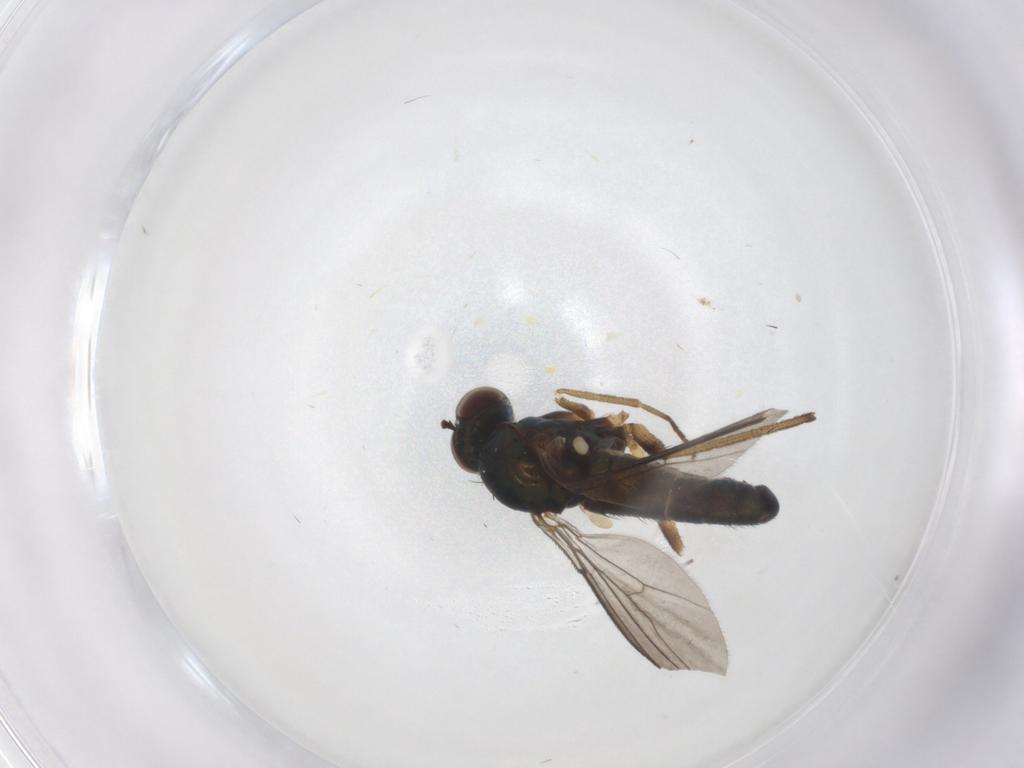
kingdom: Animalia
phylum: Arthropoda
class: Insecta
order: Diptera
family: Dolichopodidae
